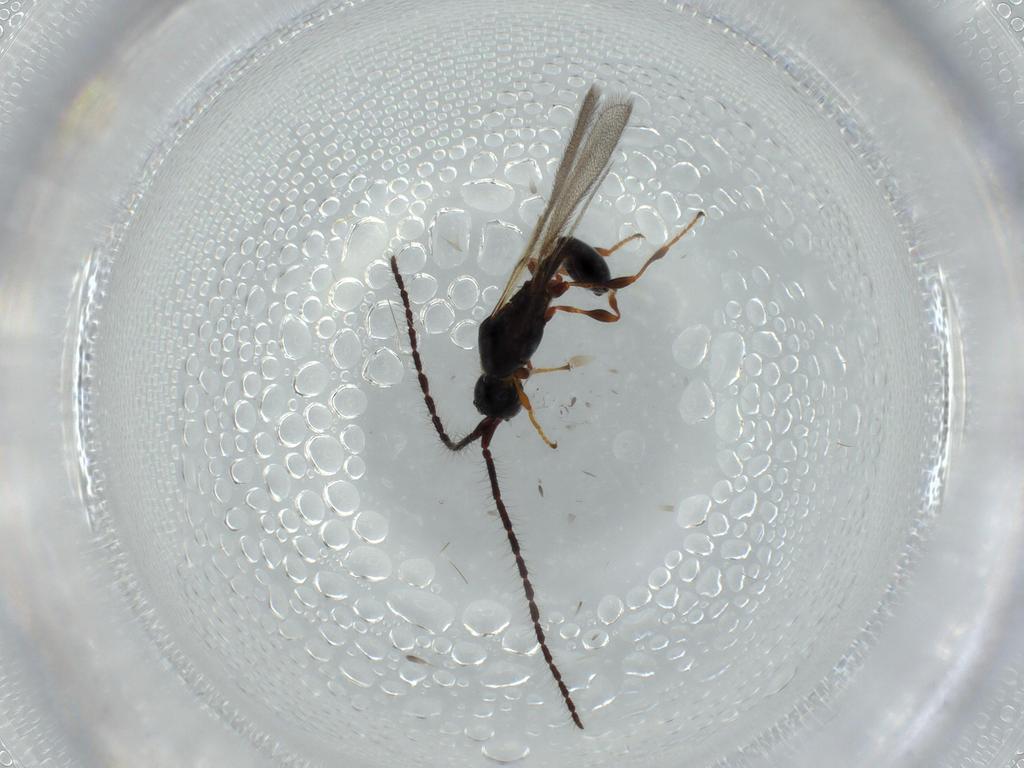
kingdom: Animalia
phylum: Arthropoda
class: Insecta
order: Hymenoptera
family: Diapriidae
